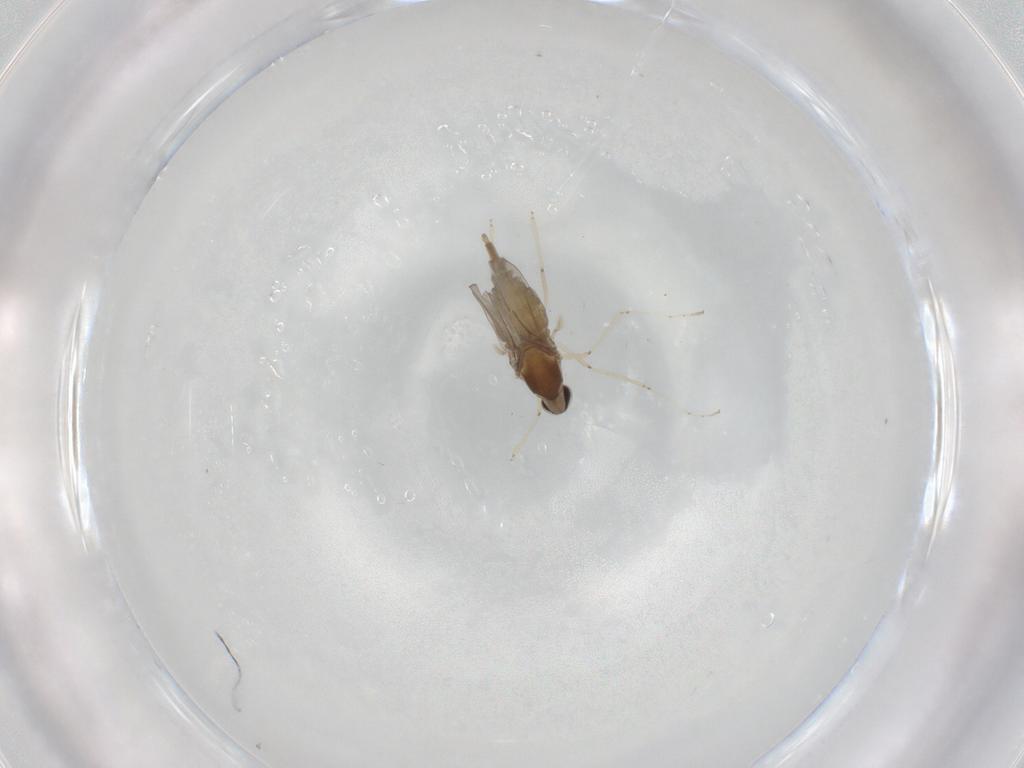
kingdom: Animalia
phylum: Arthropoda
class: Insecta
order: Diptera
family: Cecidomyiidae
